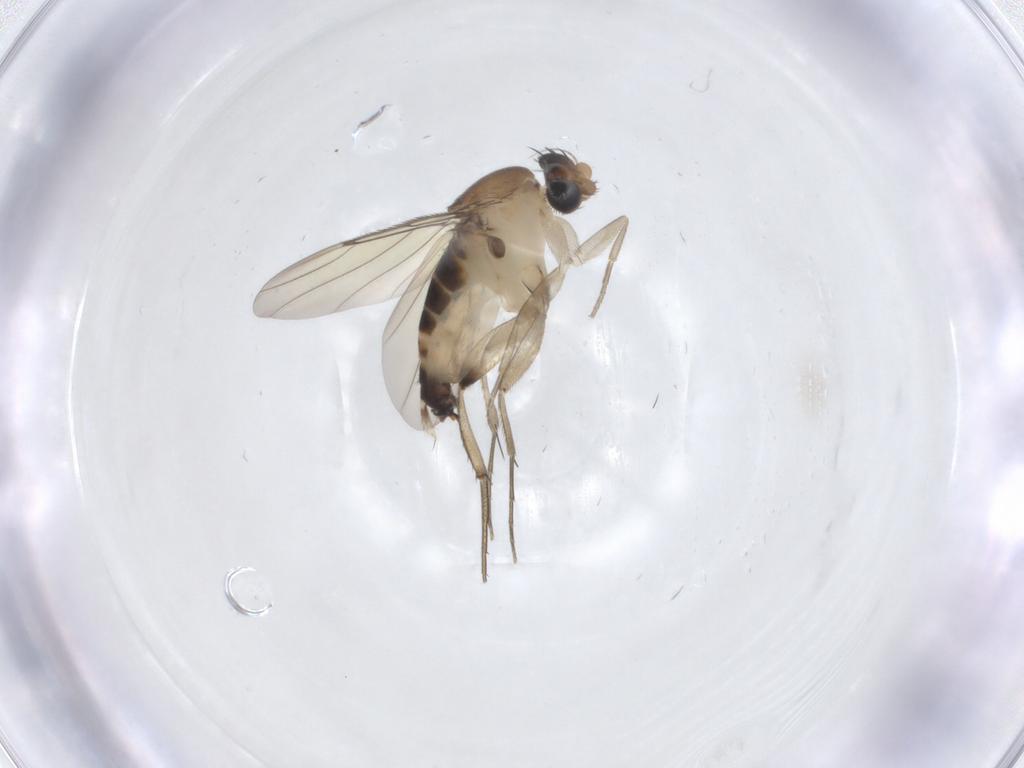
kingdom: Animalia
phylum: Arthropoda
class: Insecta
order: Diptera
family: Phoridae
